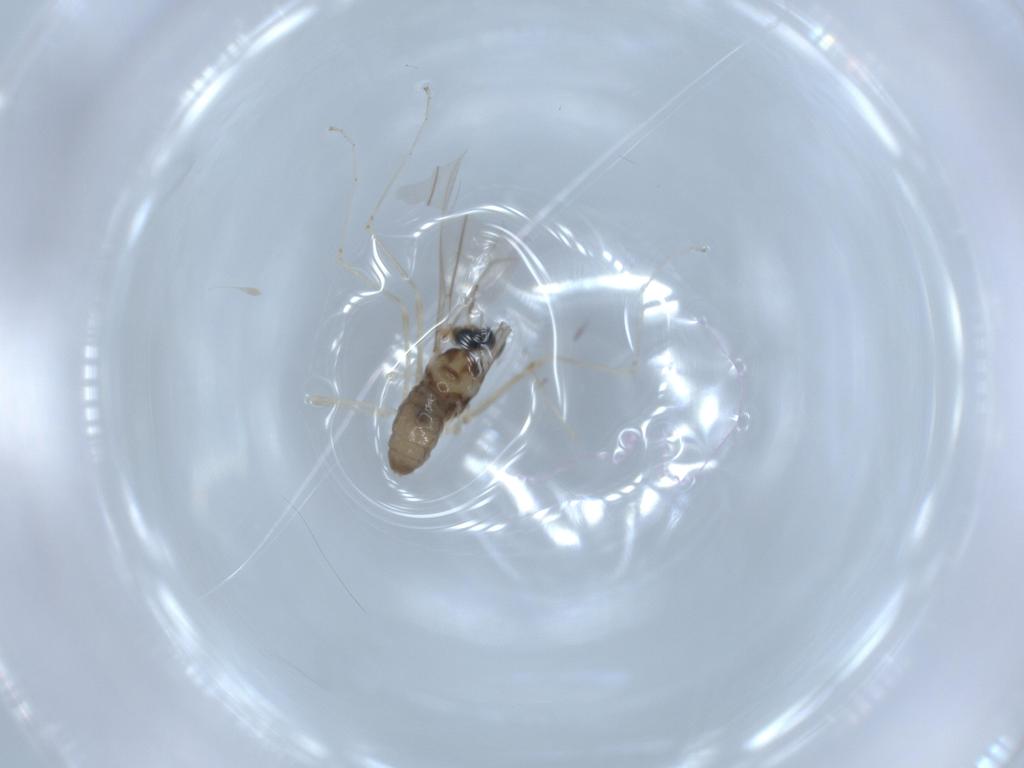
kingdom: Animalia
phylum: Arthropoda
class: Insecta
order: Diptera
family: Cecidomyiidae
